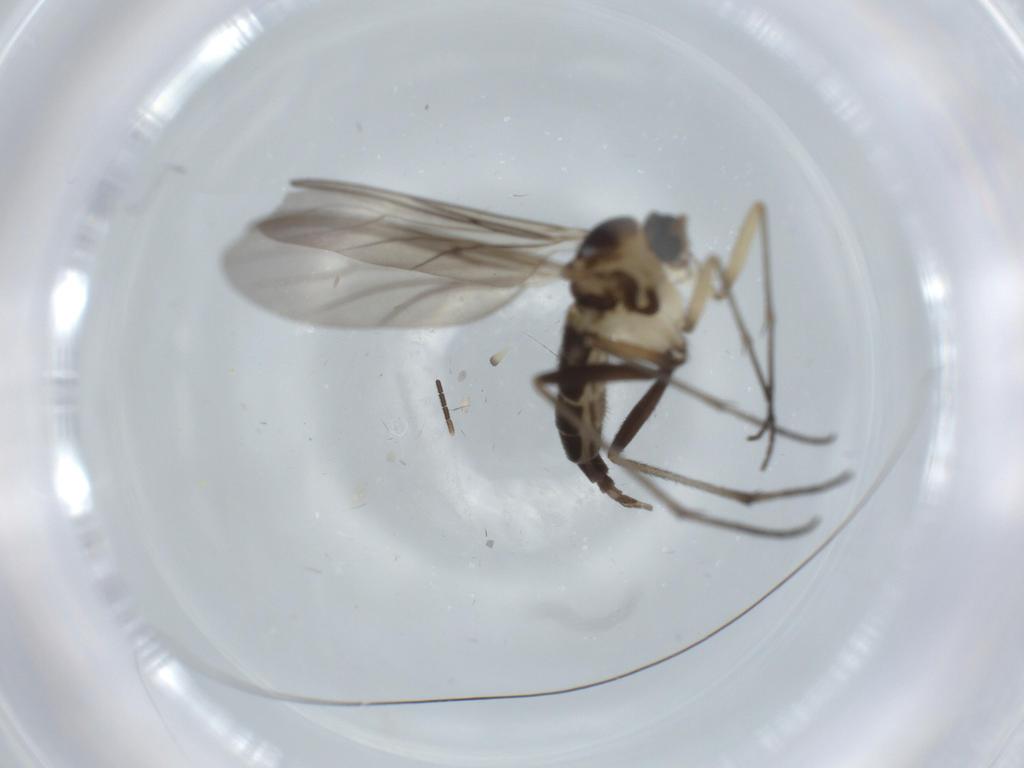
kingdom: Animalia
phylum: Arthropoda
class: Insecta
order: Diptera
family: Sciaridae
